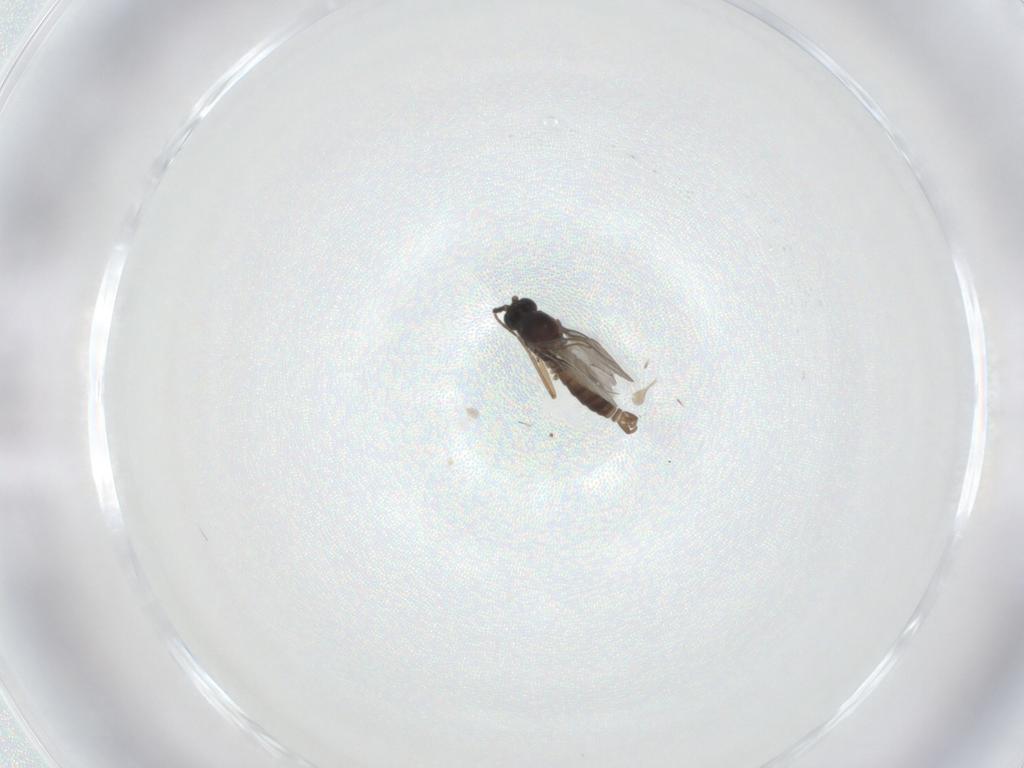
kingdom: Animalia
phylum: Arthropoda
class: Insecta
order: Diptera
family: Sciaridae
